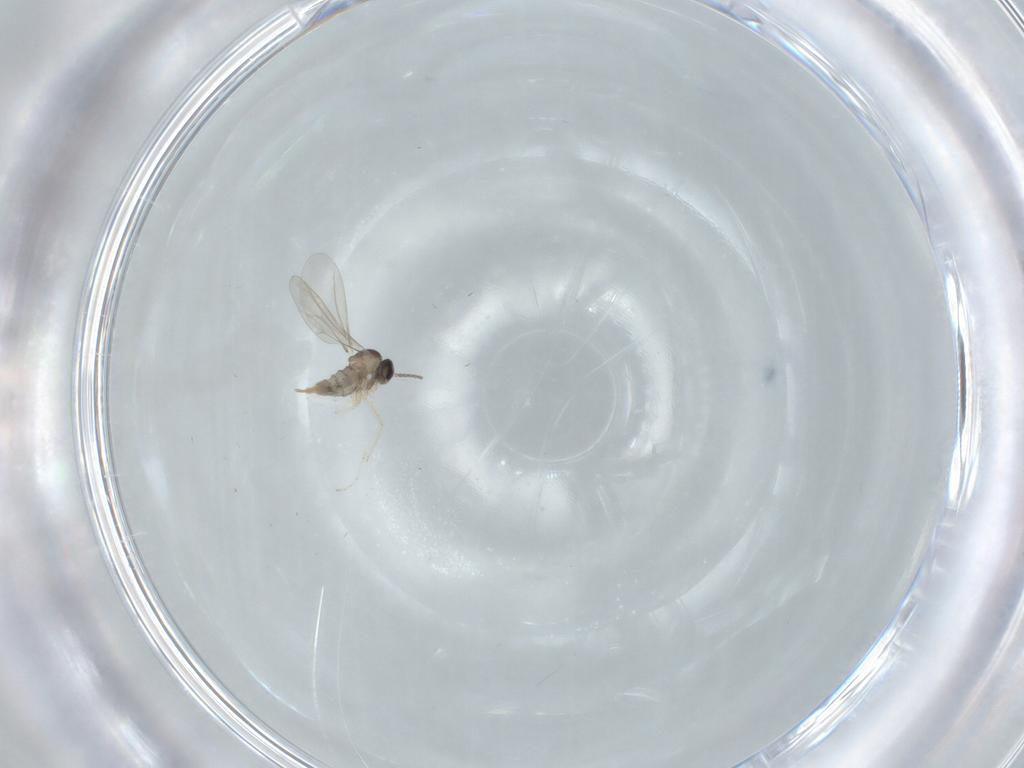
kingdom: Animalia
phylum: Arthropoda
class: Insecta
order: Diptera
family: Cecidomyiidae
